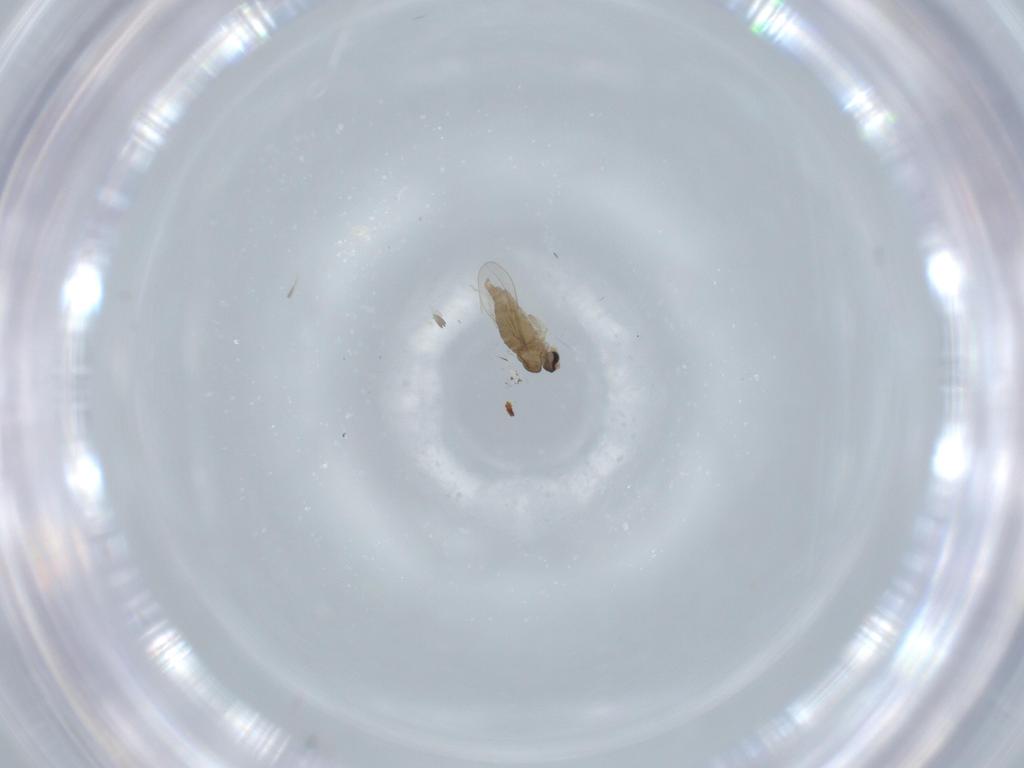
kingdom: Animalia
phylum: Arthropoda
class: Insecta
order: Diptera
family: Cecidomyiidae
